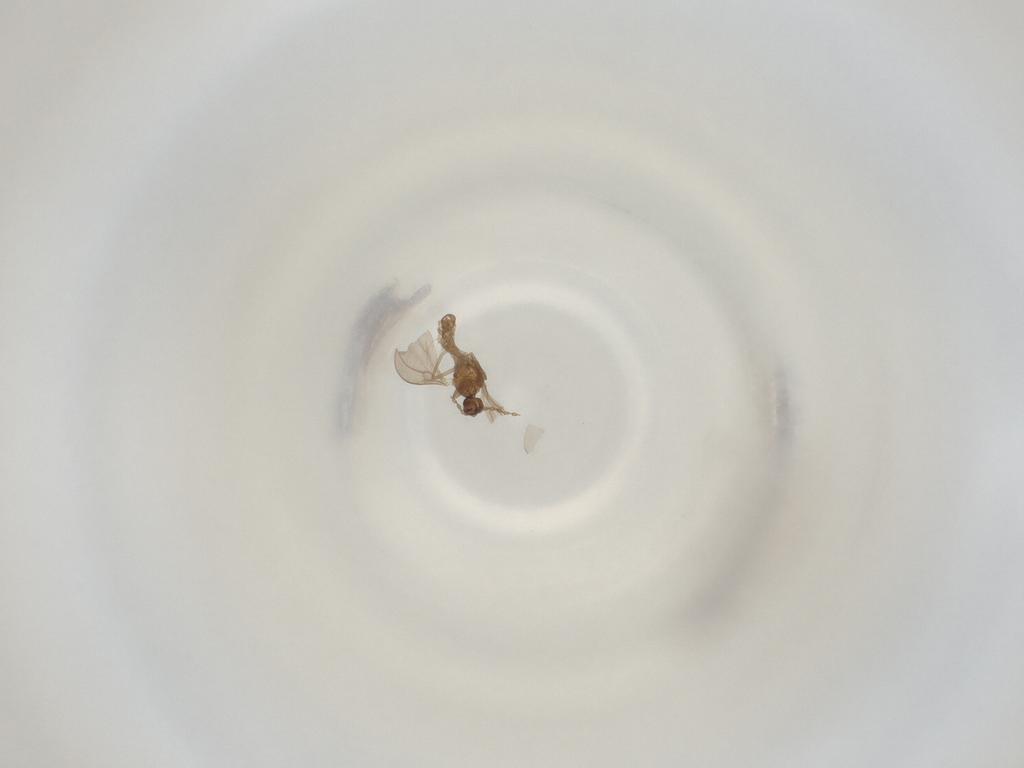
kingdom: Animalia
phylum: Arthropoda
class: Insecta
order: Diptera
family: Cecidomyiidae
